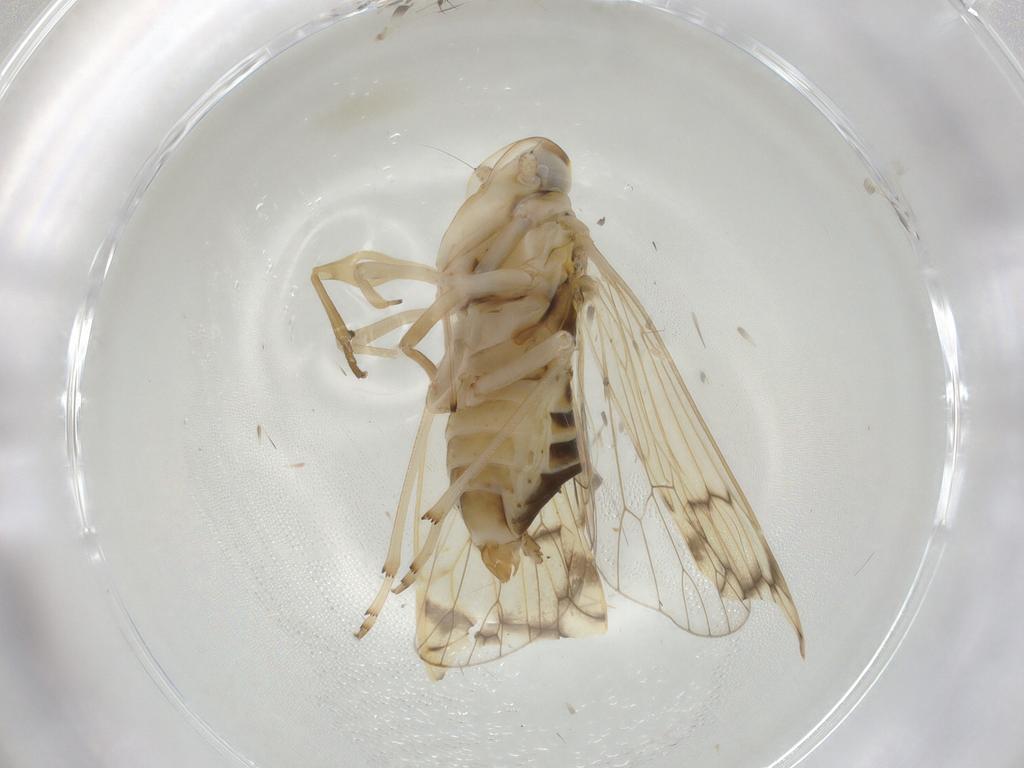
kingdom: Animalia
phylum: Arthropoda
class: Insecta
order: Hemiptera
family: Kinnaridae
